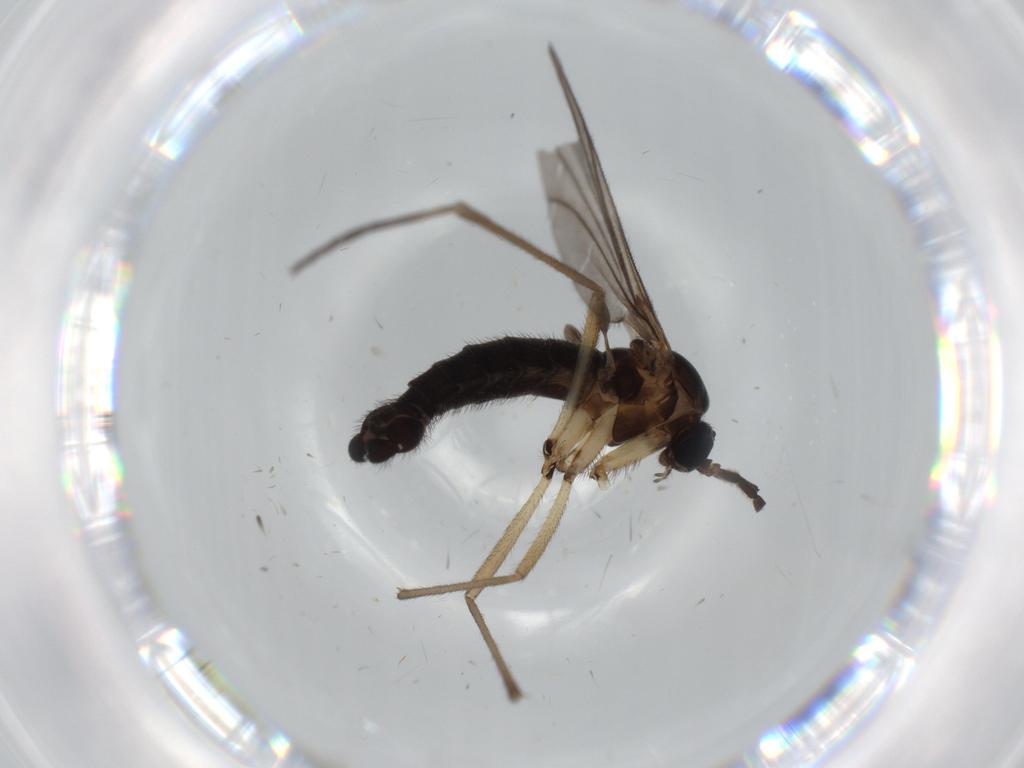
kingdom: Animalia
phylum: Arthropoda
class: Insecta
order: Diptera
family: Sciaridae
